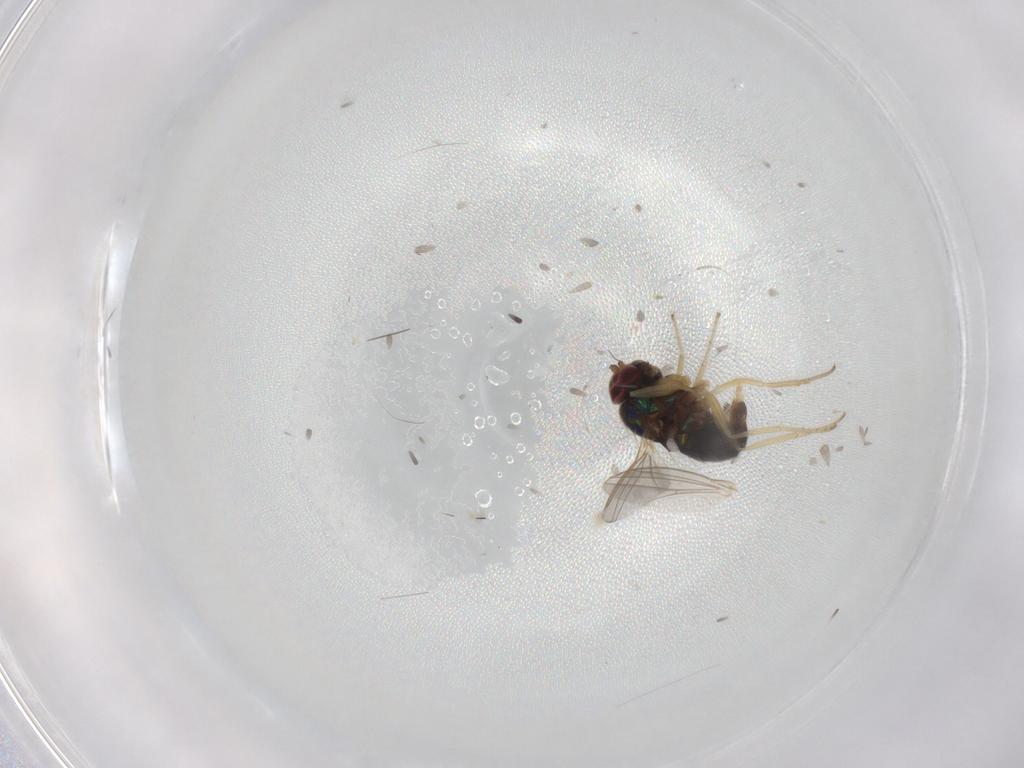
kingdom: Animalia
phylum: Arthropoda
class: Insecta
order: Diptera
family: Dolichopodidae
